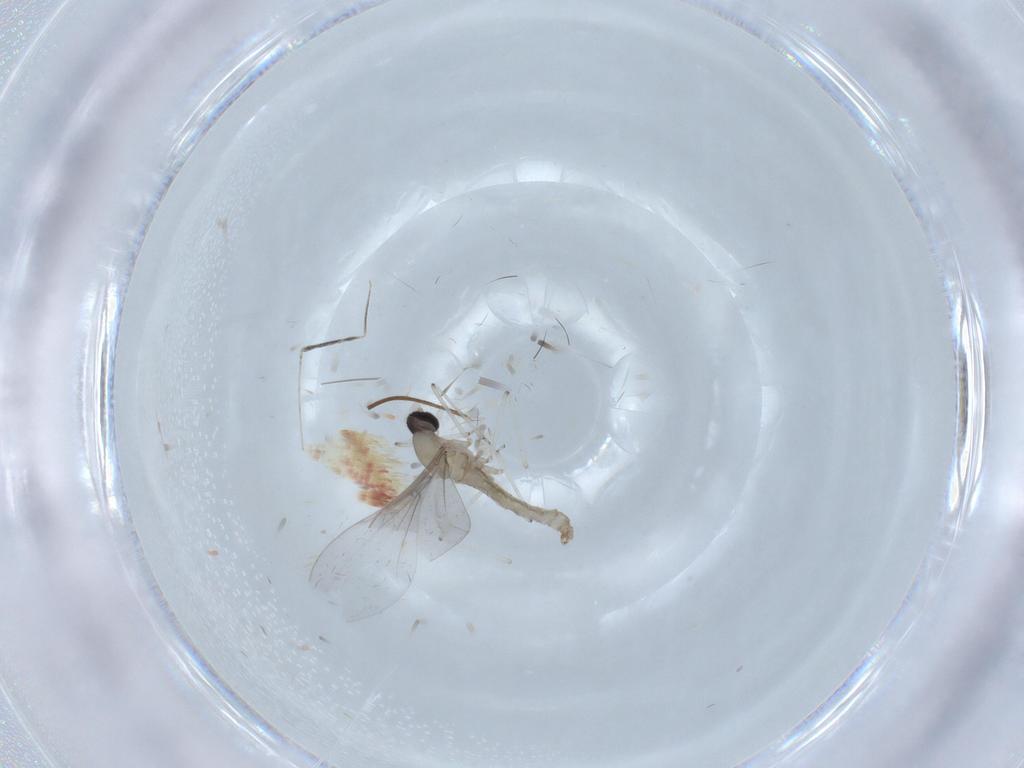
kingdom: Animalia
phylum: Arthropoda
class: Insecta
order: Diptera
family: Cecidomyiidae
